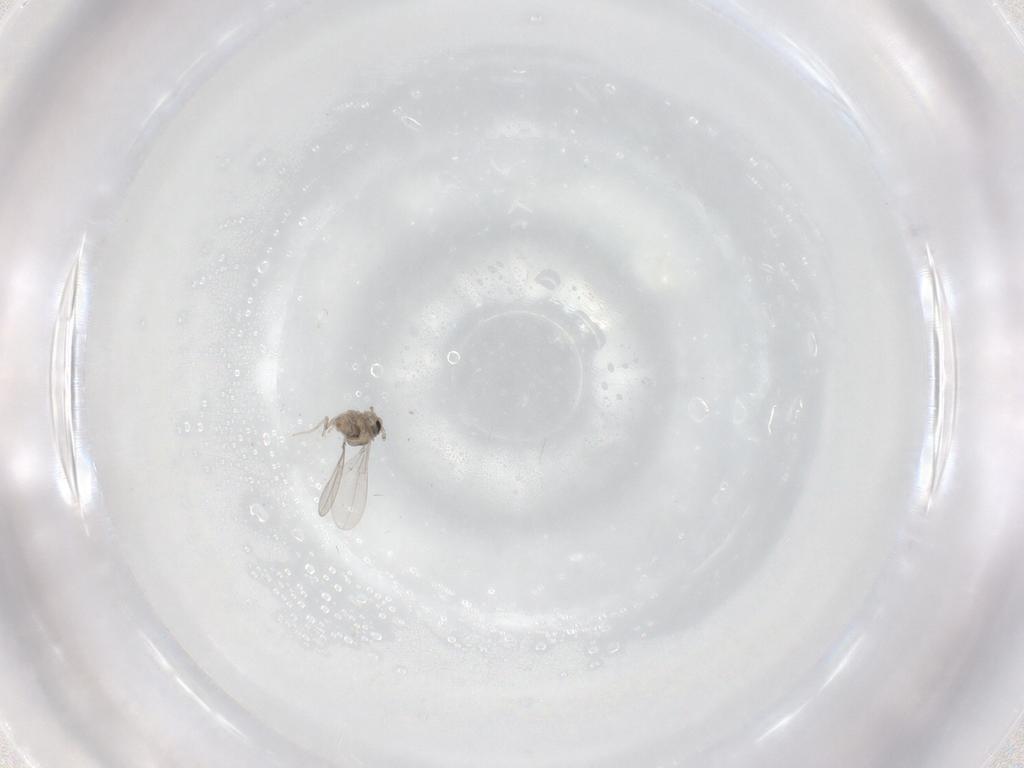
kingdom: Animalia
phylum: Arthropoda
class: Insecta
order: Diptera
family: Cecidomyiidae
